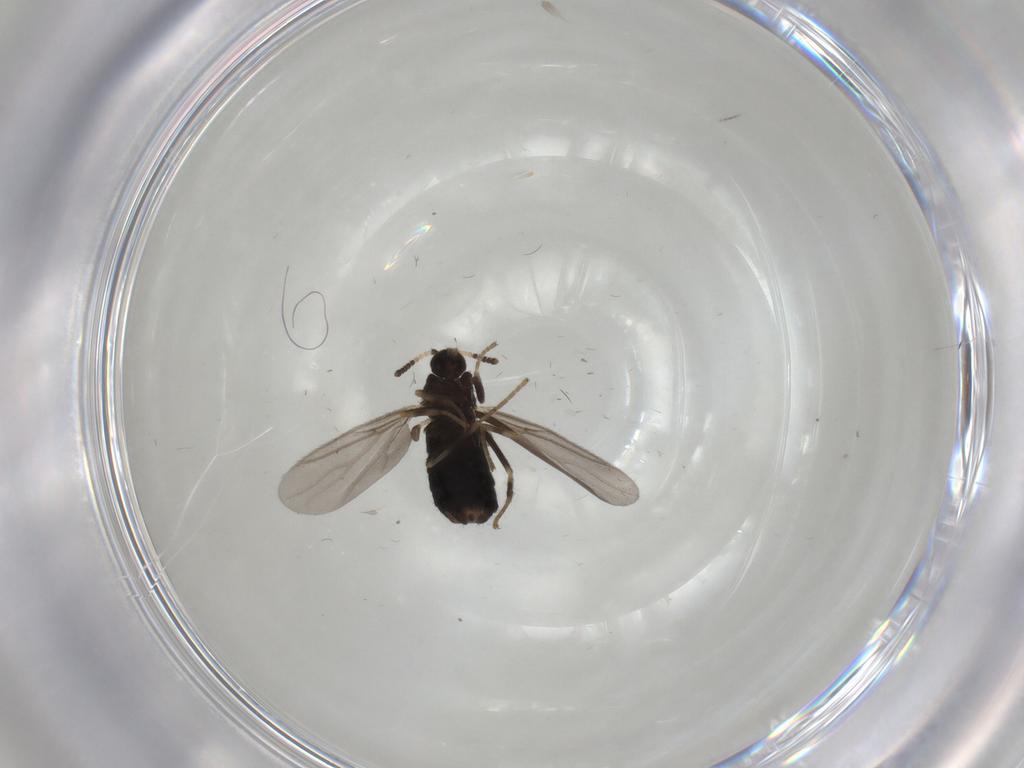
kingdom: Animalia
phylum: Arthropoda
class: Insecta
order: Diptera
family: Scatopsidae
